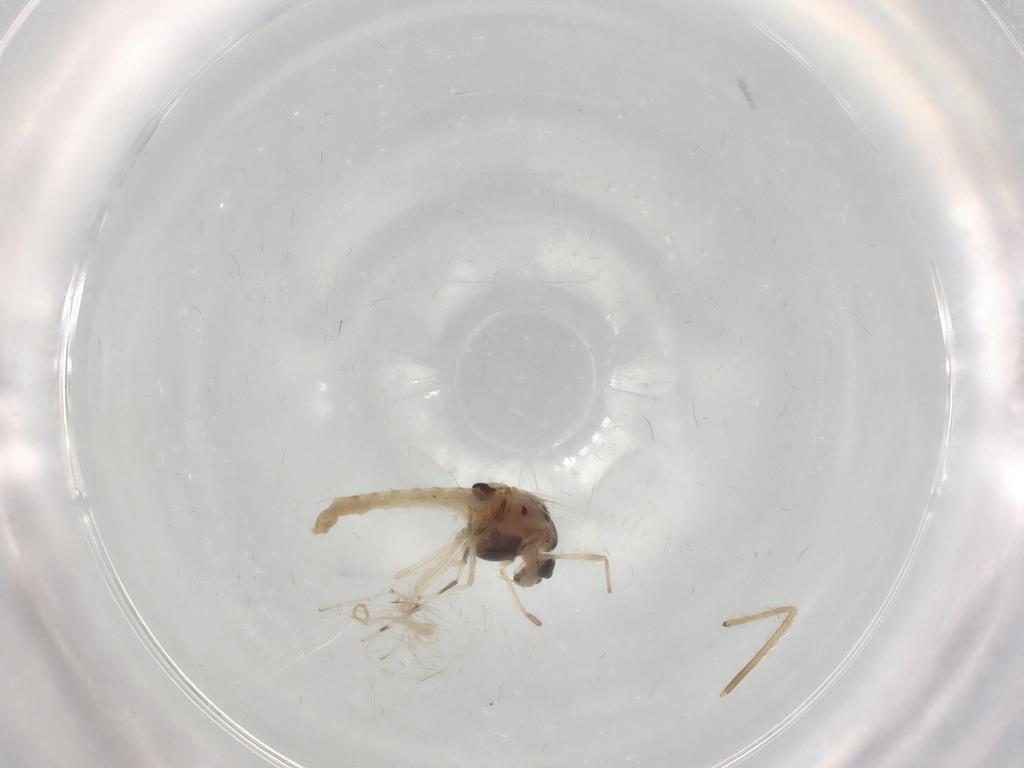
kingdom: Animalia
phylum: Arthropoda
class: Insecta
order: Diptera
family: Chironomidae
